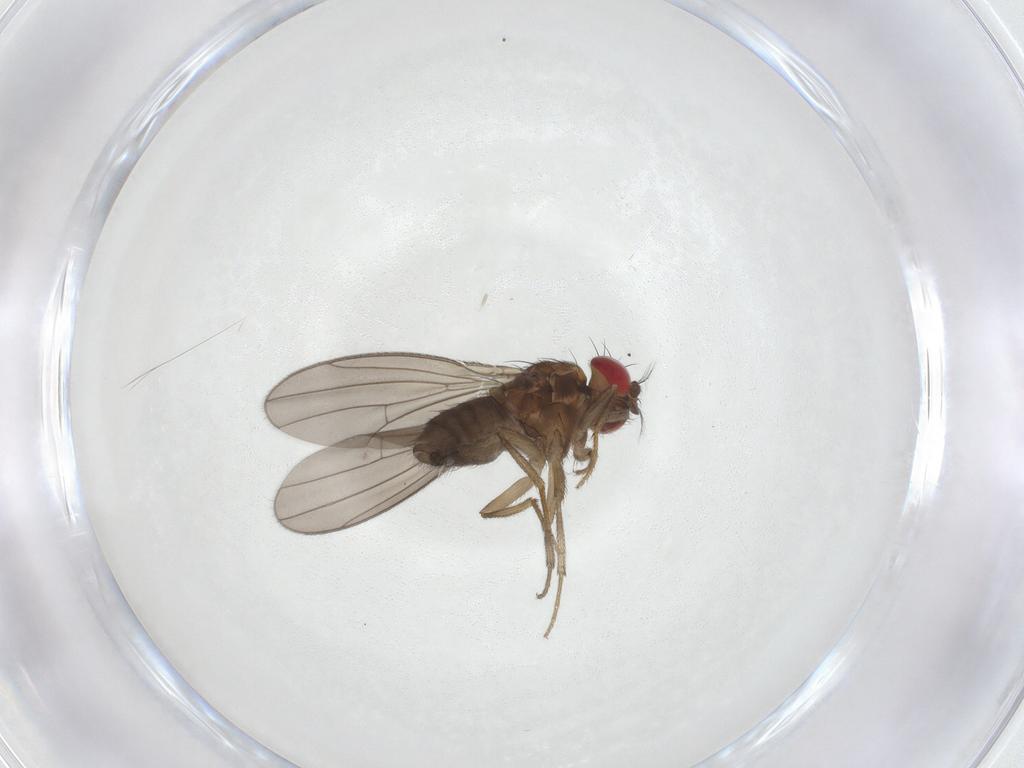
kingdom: Animalia
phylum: Arthropoda
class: Insecta
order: Diptera
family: Drosophilidae
